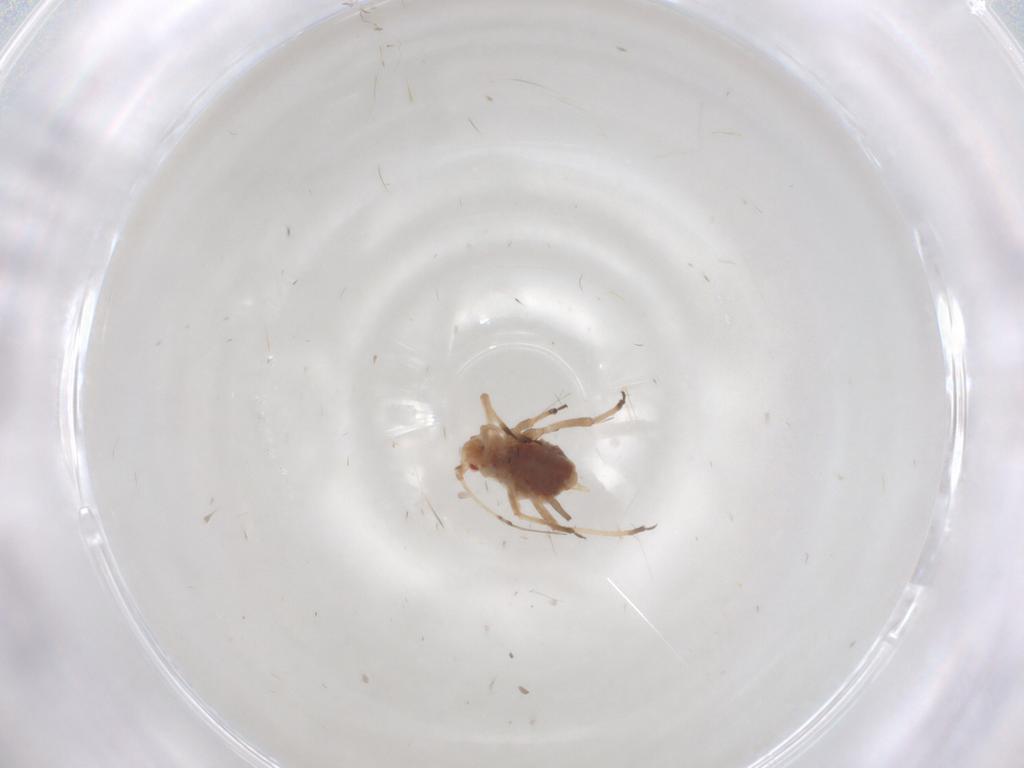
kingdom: Animalia
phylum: Arthropoda
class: Insecta
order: Hemiptera
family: Aphididae
